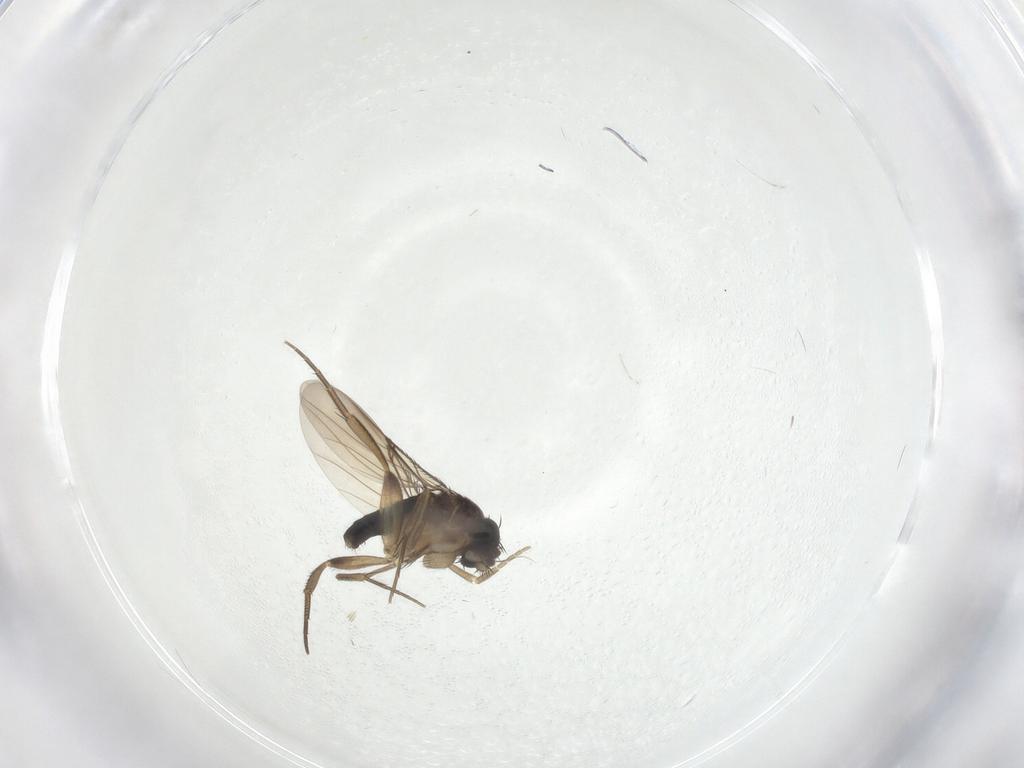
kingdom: Animalia
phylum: Arthropoda
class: Insecta
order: Diptera
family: Phoridae
